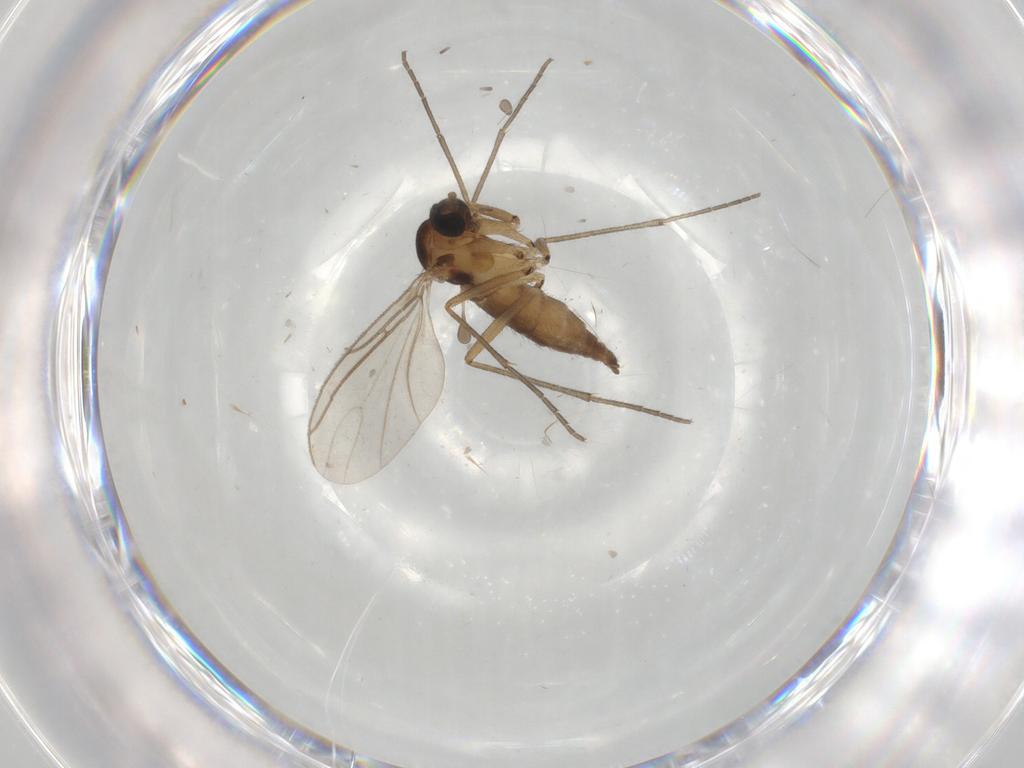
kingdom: Animalia
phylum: Arthropoda
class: Insecta
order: Diptera
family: Sciaridae
